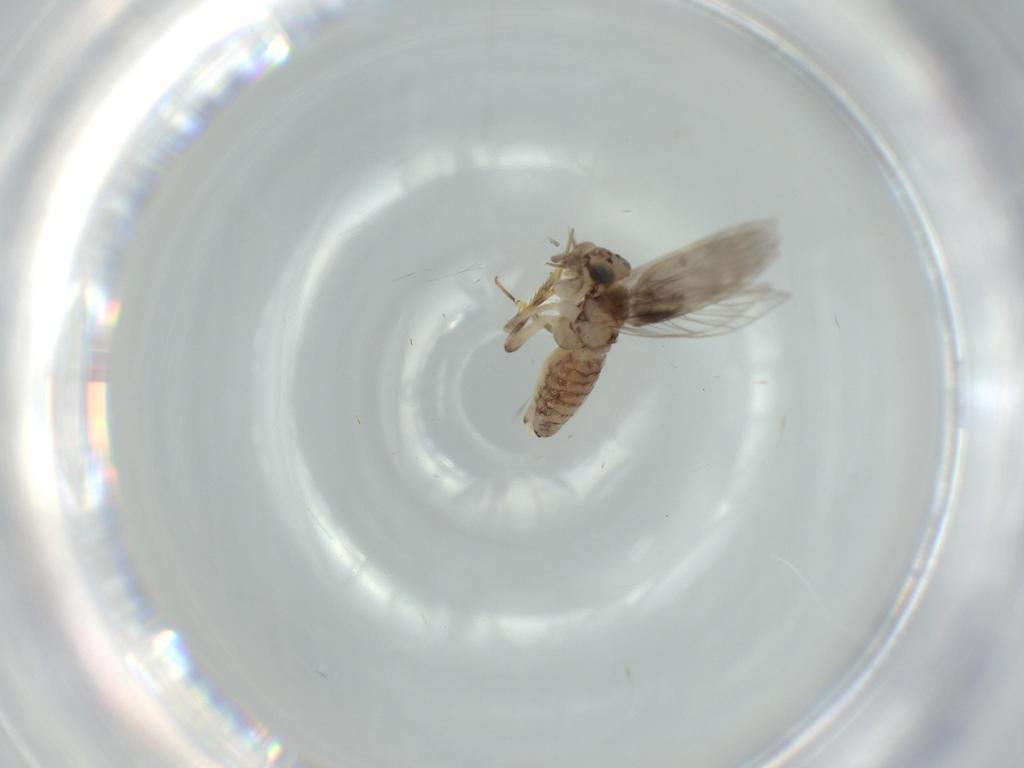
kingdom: Animalia
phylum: Arthropoda
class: Insecta
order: Psocodea
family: Lepidopsocidae
